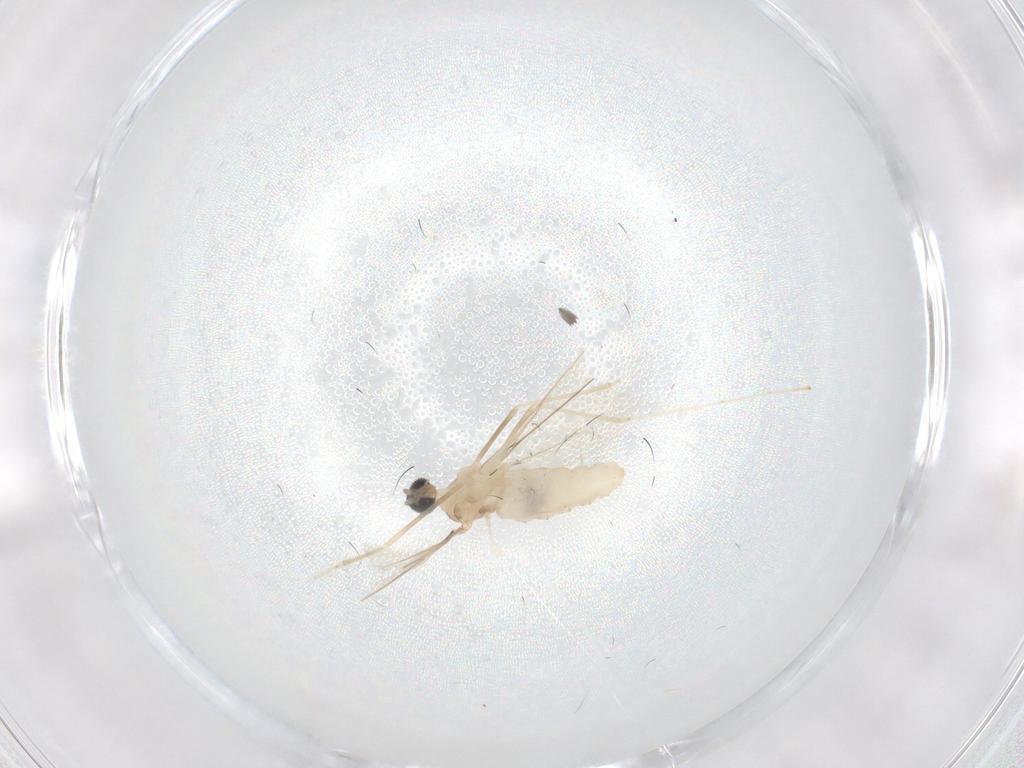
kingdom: Animalia
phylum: Arthropoda
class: Insecta
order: Diptera
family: Cecidomyiidae
